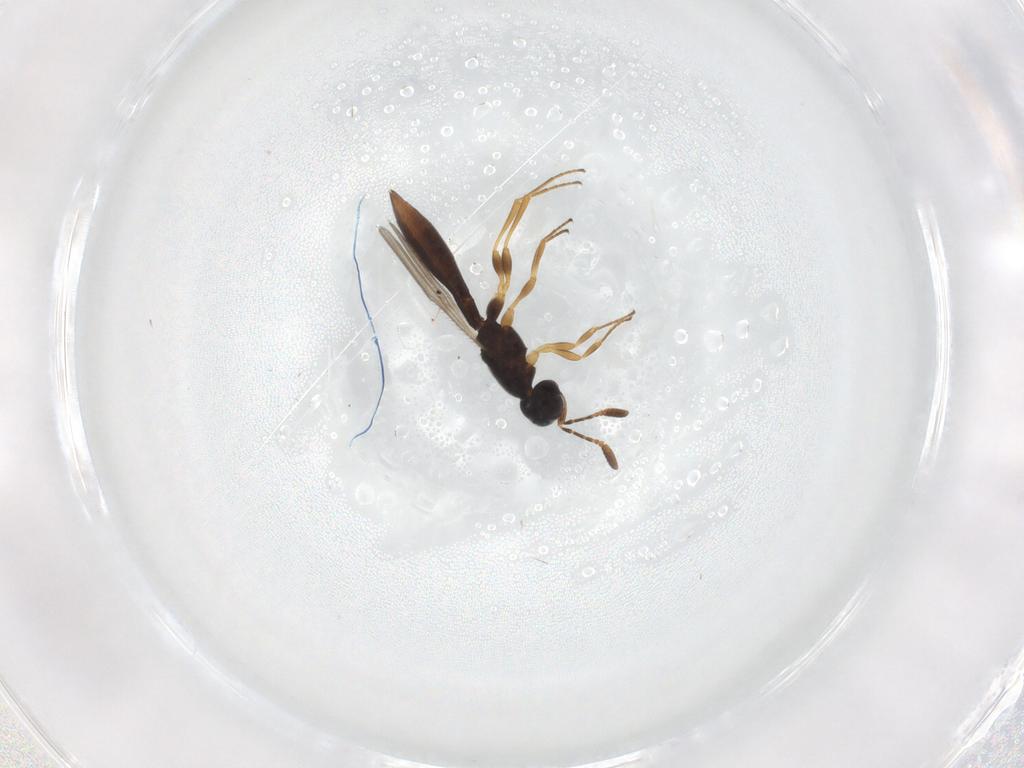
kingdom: Animalia
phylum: Arthropoda
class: Insecta
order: Hymenoptera
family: Scelionidae
